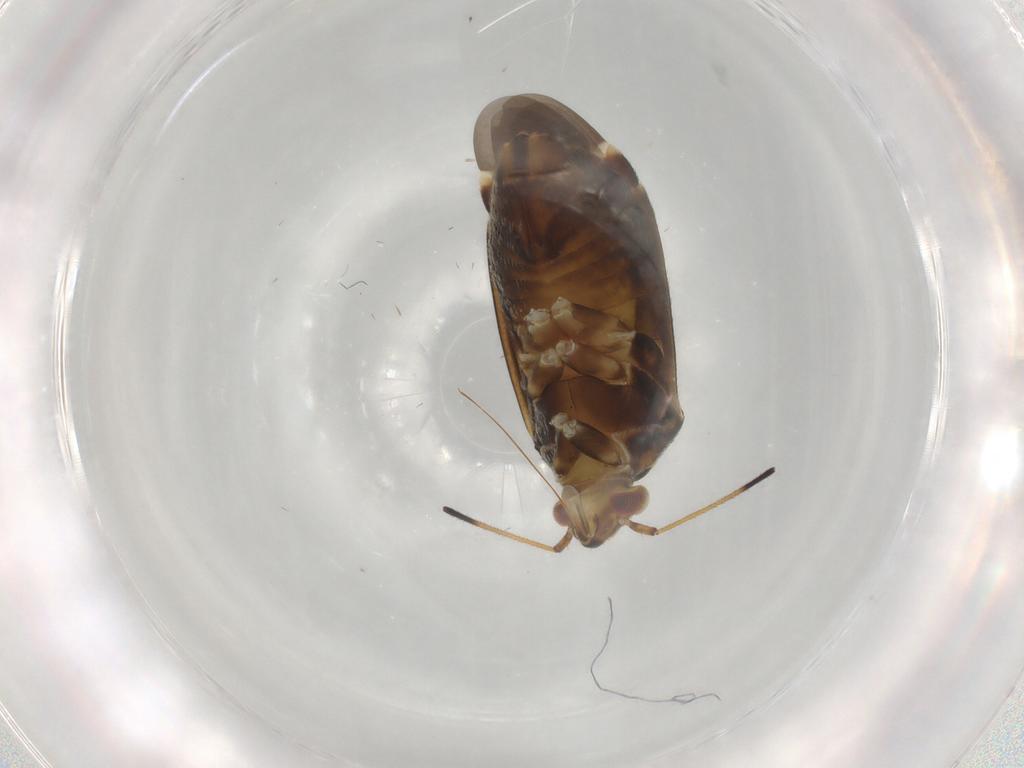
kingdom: Animalia
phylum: Arthropoda
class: Insecta
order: Hemiptera
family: Miridae
